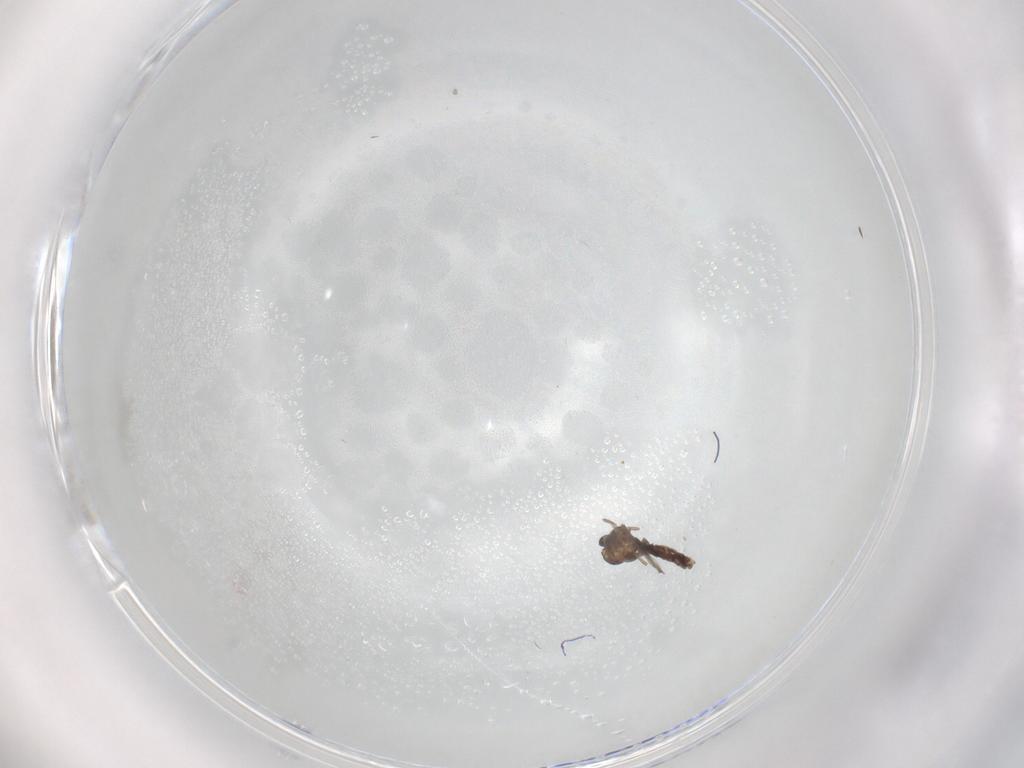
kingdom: Animalia
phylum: Arthropoda
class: Insecta
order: Diptera
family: Chironomidae
